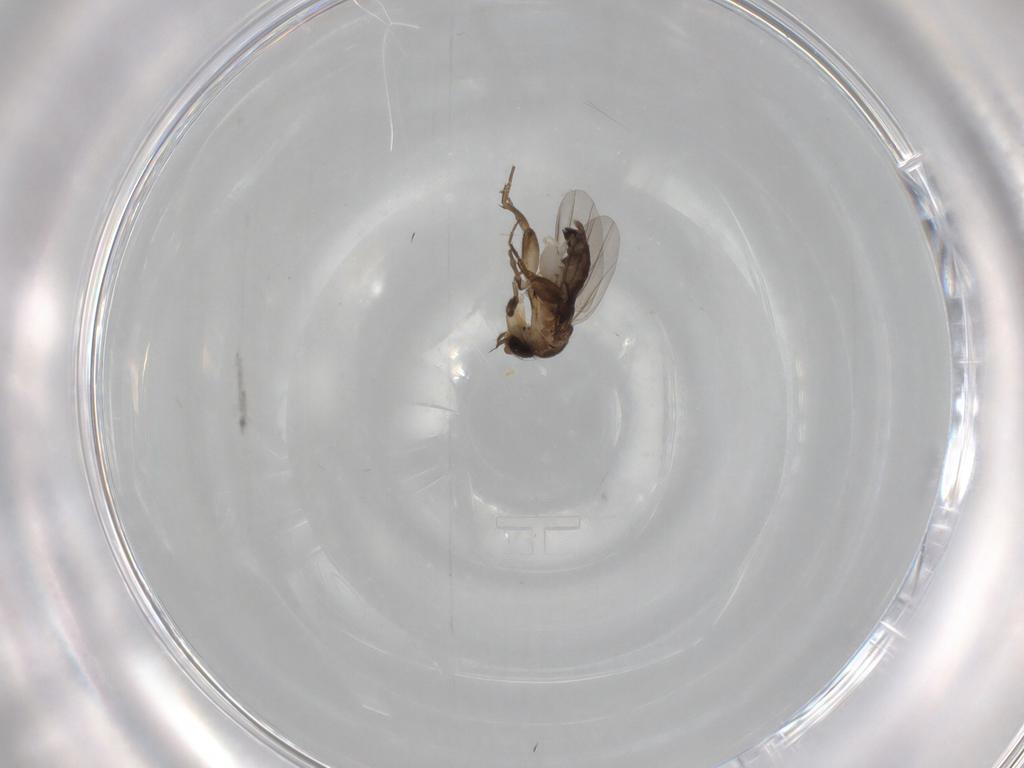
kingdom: Animalia
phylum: Arthropoda
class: Insecta
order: Diptera
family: Phoridae
